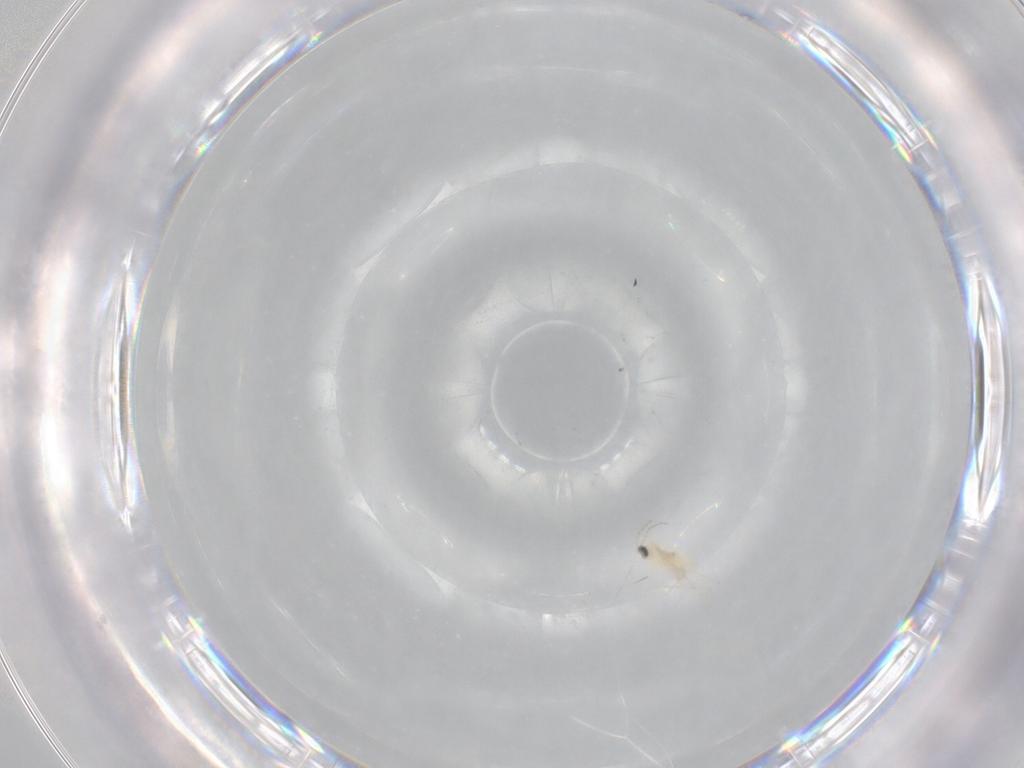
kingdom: Animalia
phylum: Arthropoda
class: Insecta
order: Diptera
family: Cecidomyiidae
